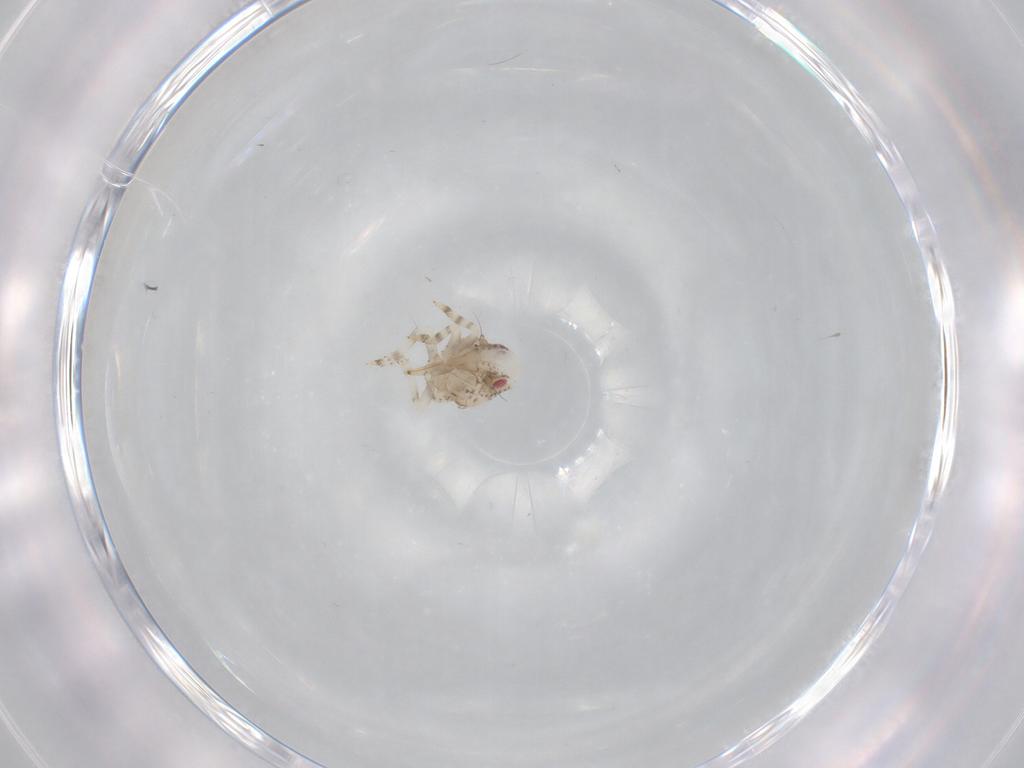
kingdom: Animalia
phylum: Arthropoda
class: Insecta
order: Hemiptera
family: Acanaloniidae
